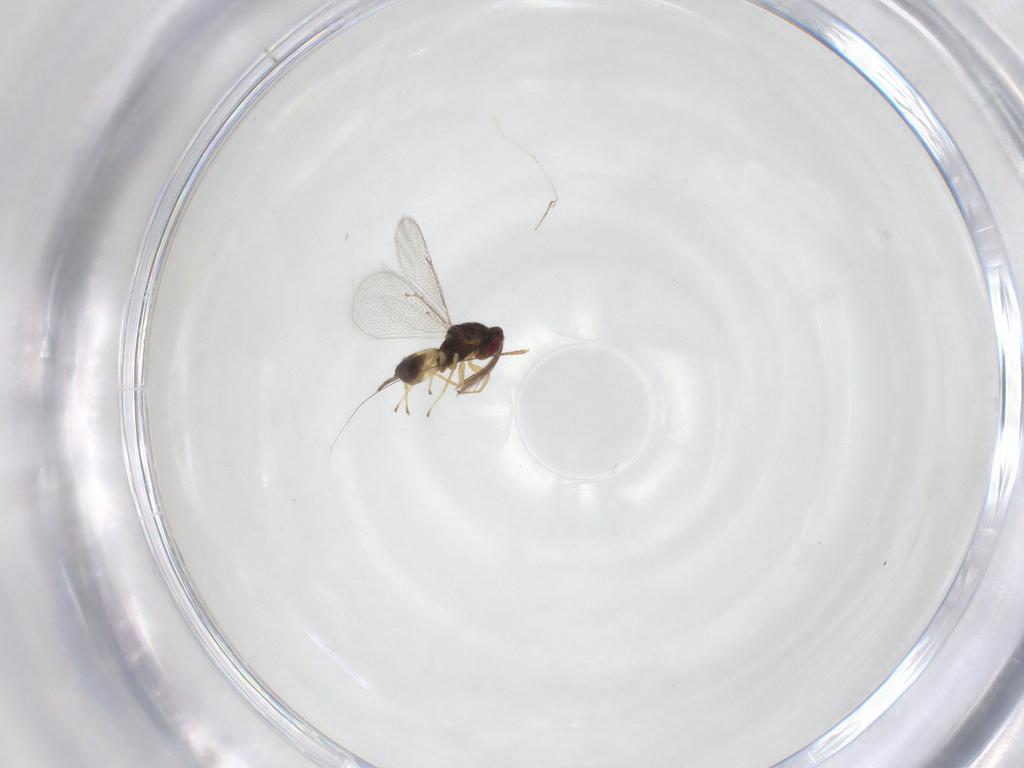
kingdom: Animalia
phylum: Arthropoda
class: Insecta
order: Hymenoptera
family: Eulophidae
